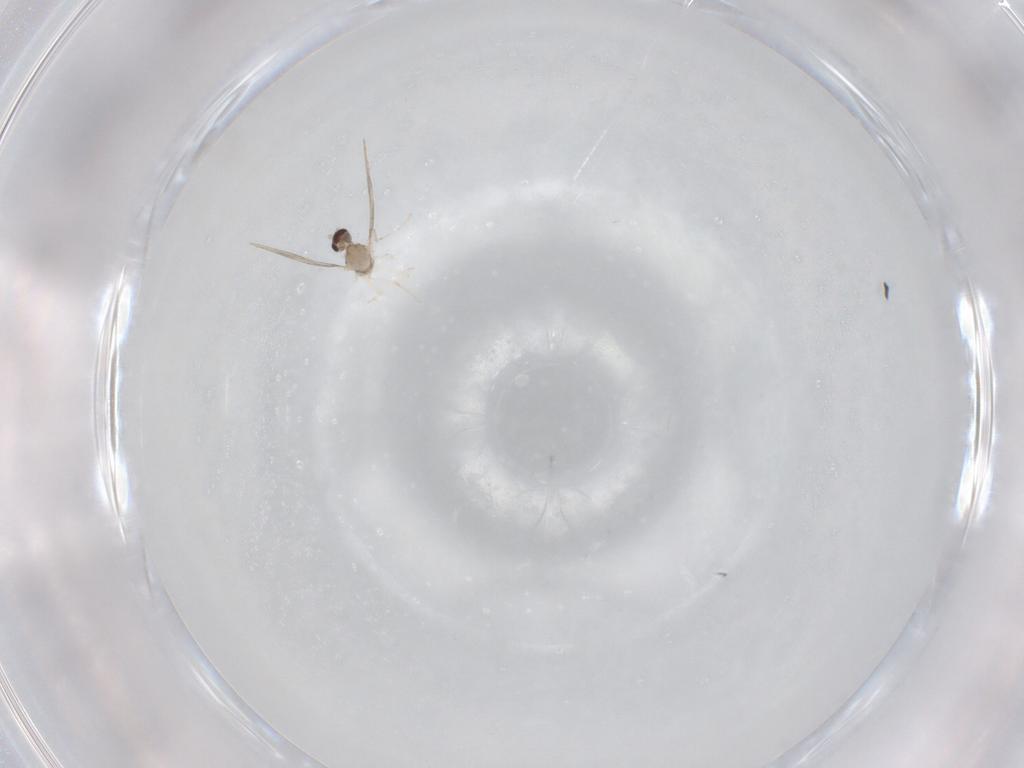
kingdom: Animalia
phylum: Arthropoda
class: Insecta
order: Diptera
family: Cecidomyiidae
